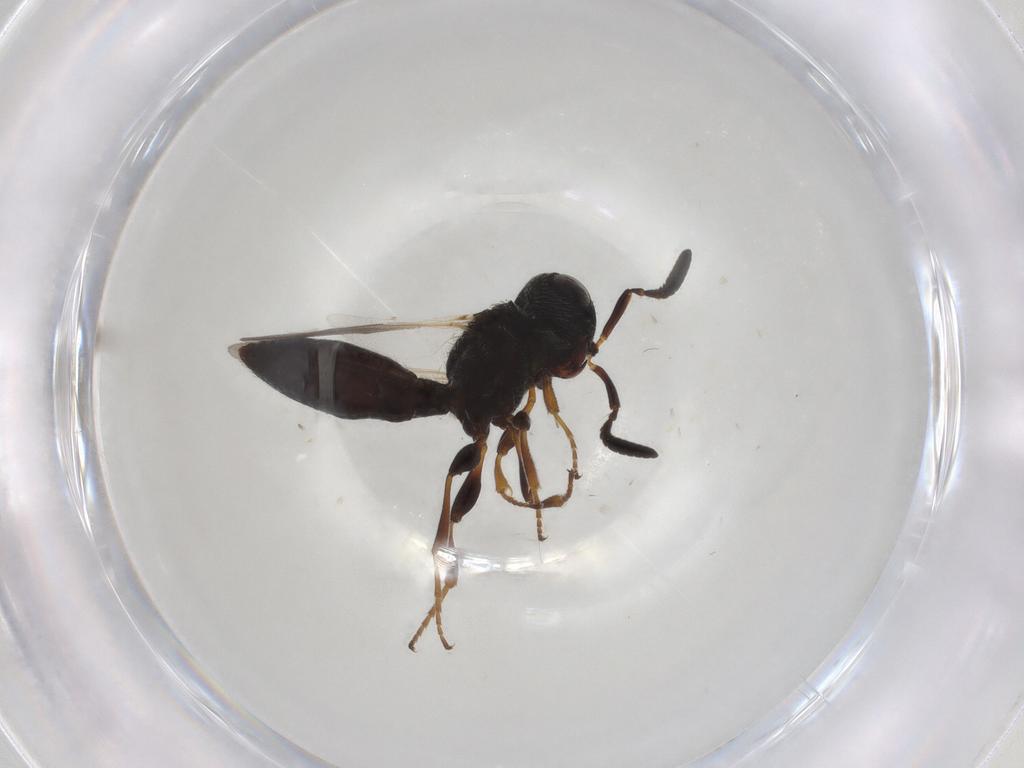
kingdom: Animalia
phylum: Arthropoda
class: Insecta
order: Hymenoptera
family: Scelionidae
